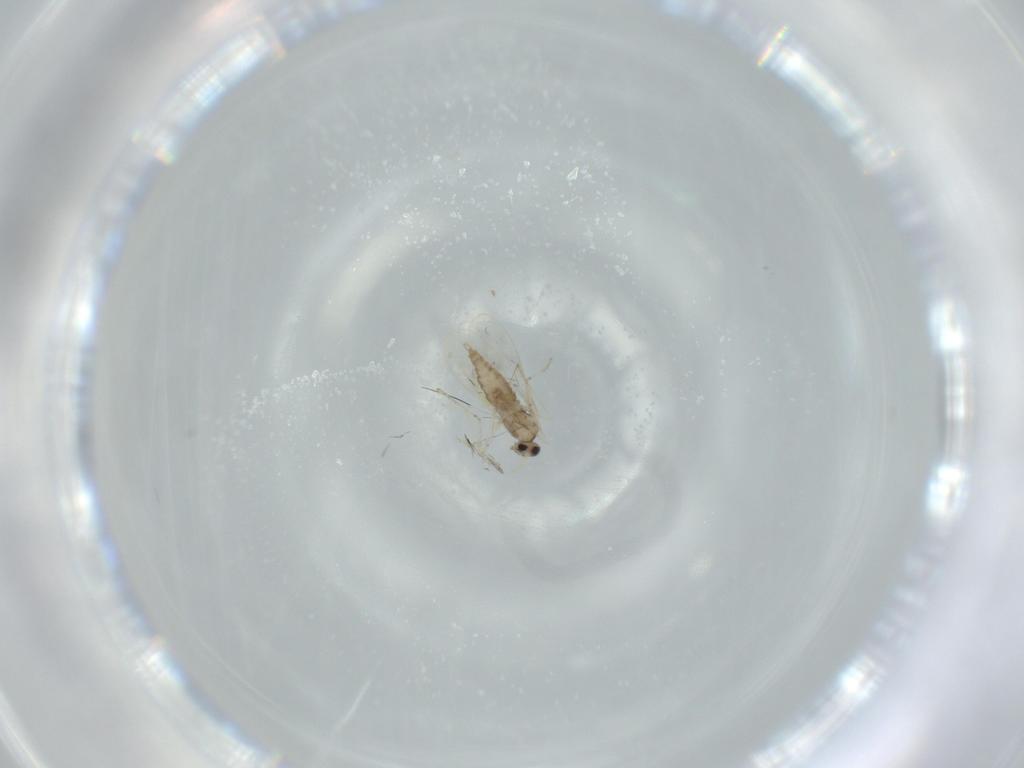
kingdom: Animalia
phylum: Arthropoda
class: Insecta
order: Diptera
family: Cecidomyiidae
